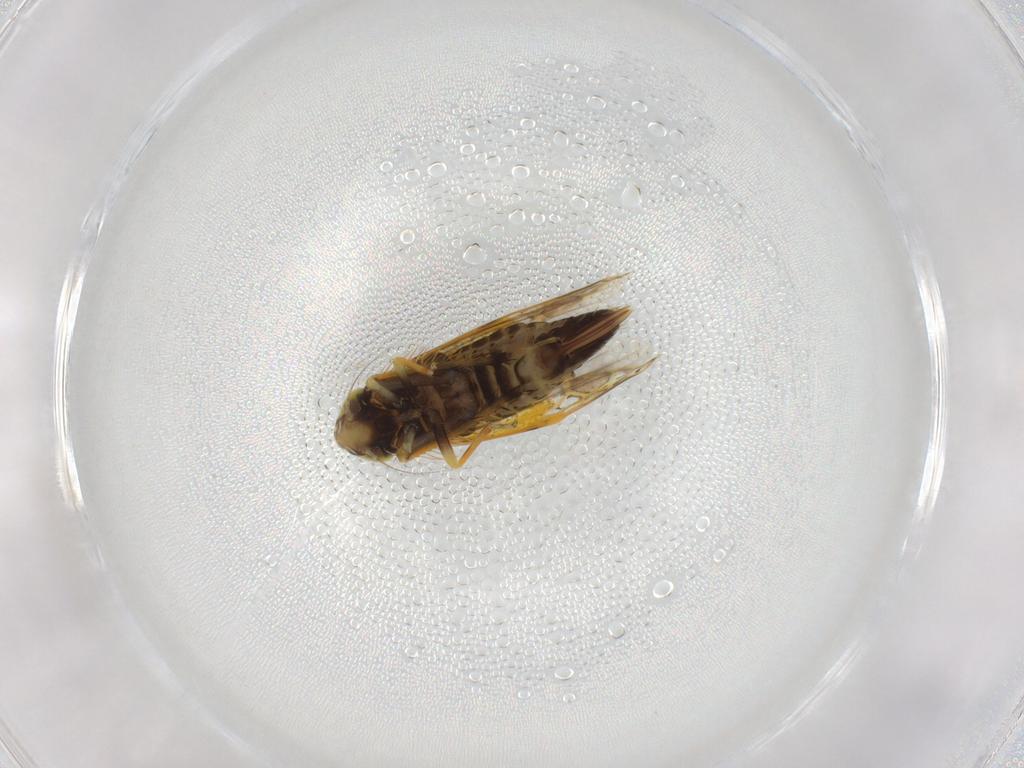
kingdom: Animalia
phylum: Arthropoda
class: Insecta
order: Hemiptera
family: Cicadellidae
